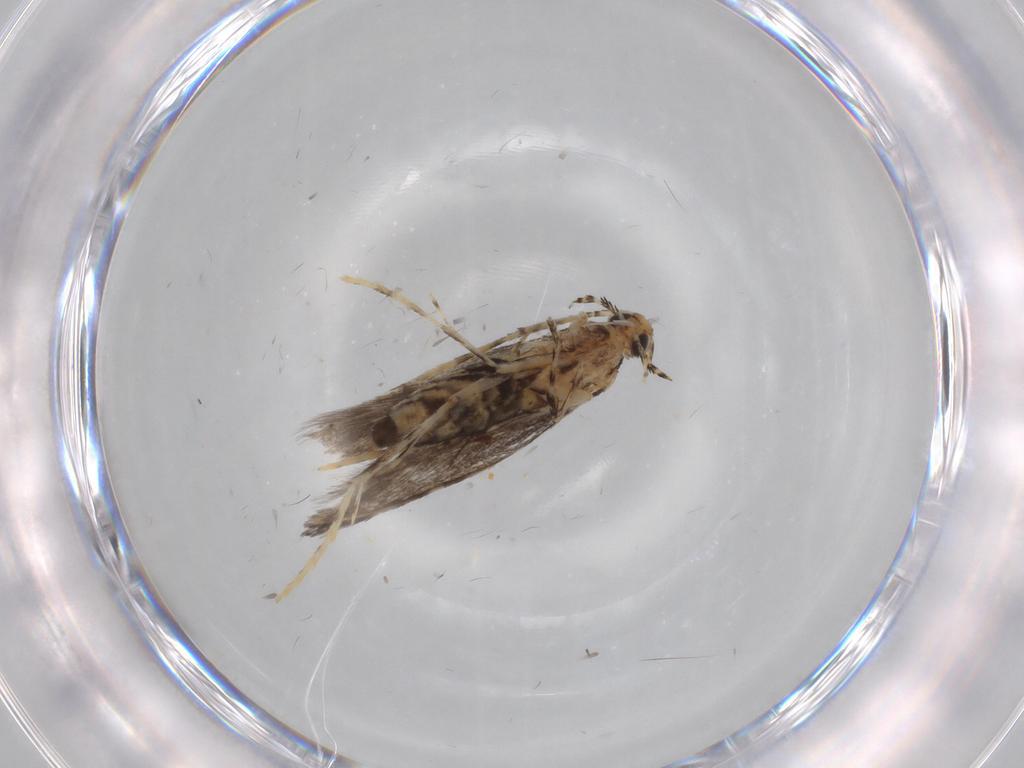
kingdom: Animalia
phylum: Arthropoda
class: Insecta
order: Lepidoptera
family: Gracillariidae
